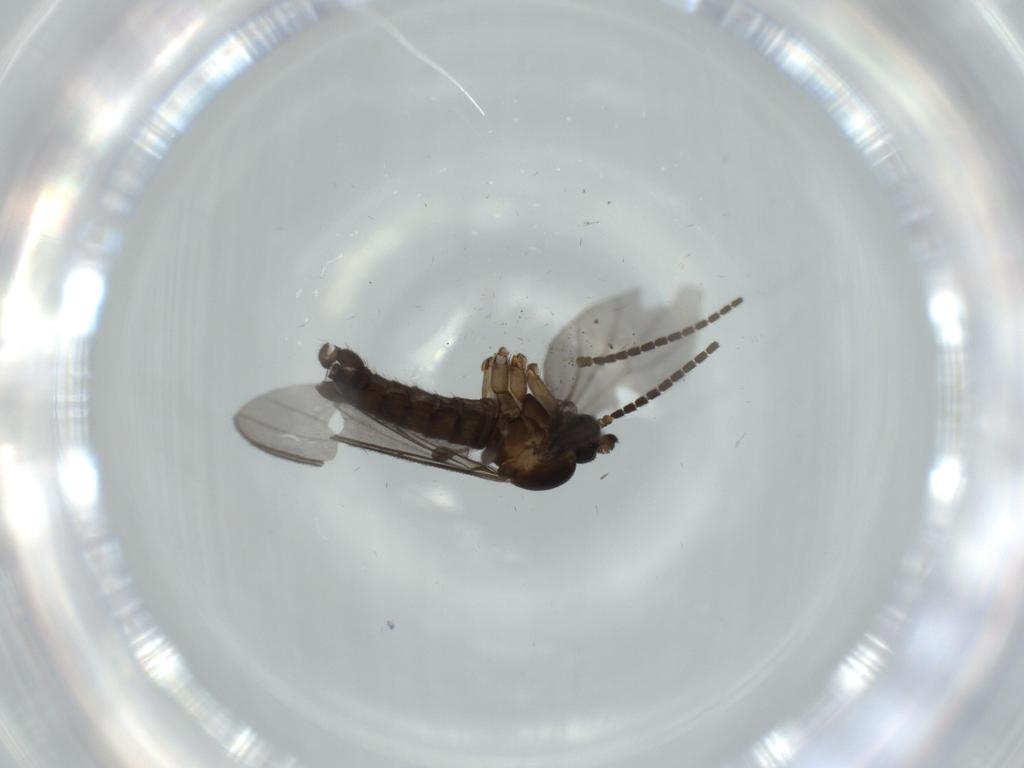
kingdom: Animalia
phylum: Arthropoda
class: Insecta
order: Diptera
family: Sciaridae
